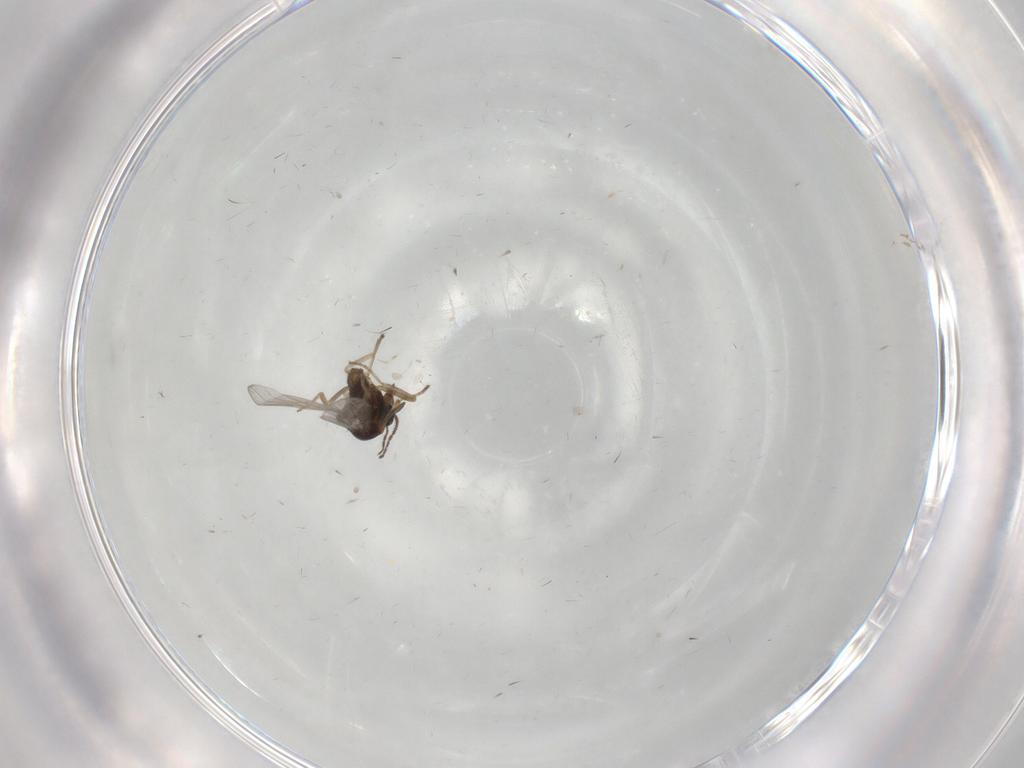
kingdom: Animalia
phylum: Arthropoda
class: Insecta
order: Diptera
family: Ceratopogonidae
